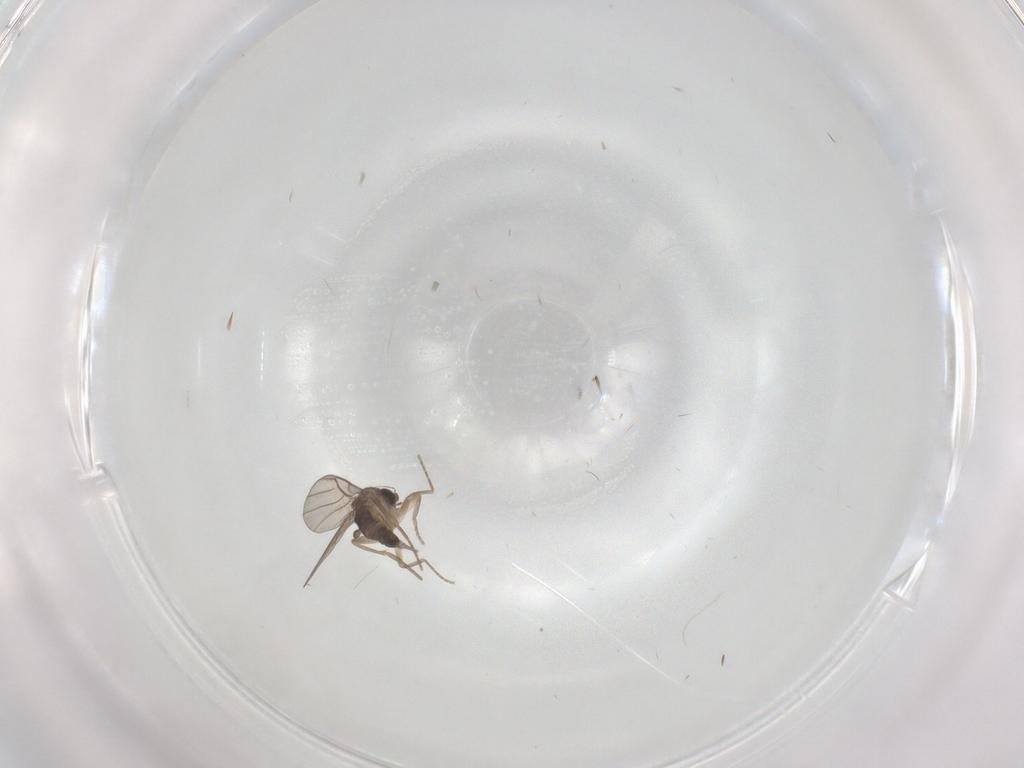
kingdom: Animalia
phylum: Arthropoda
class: Insecta
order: Diptera
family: Phoridae
